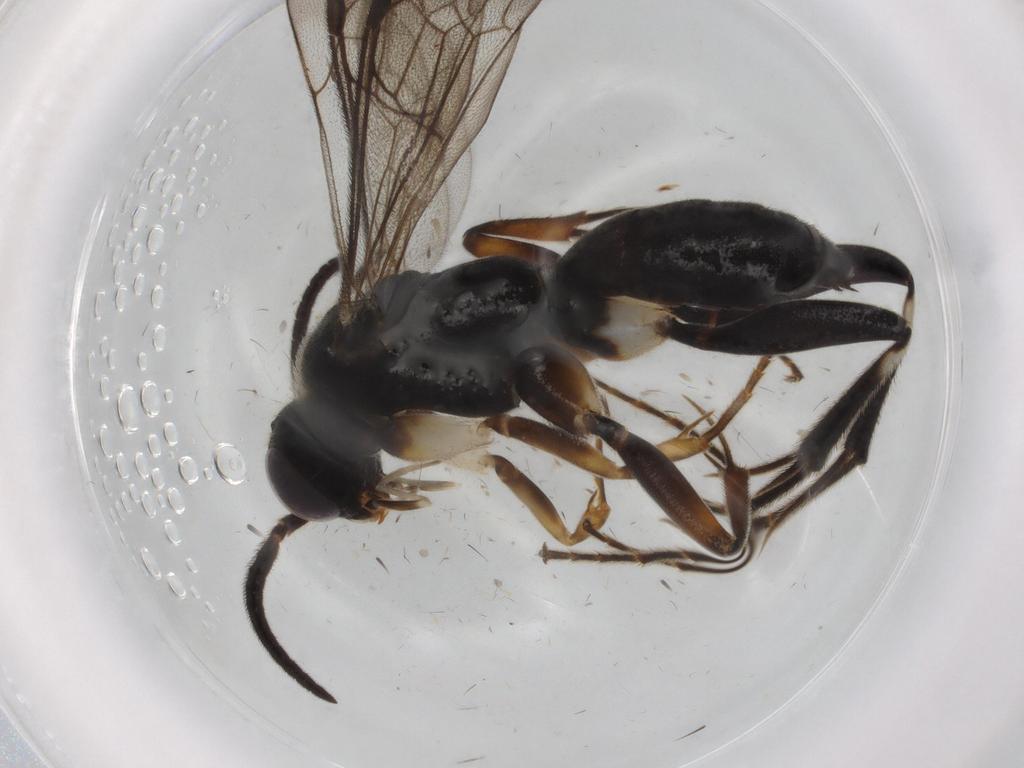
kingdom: Animalia
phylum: Arthropoda
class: Insecta
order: Hymenoptera
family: Pompilidae
